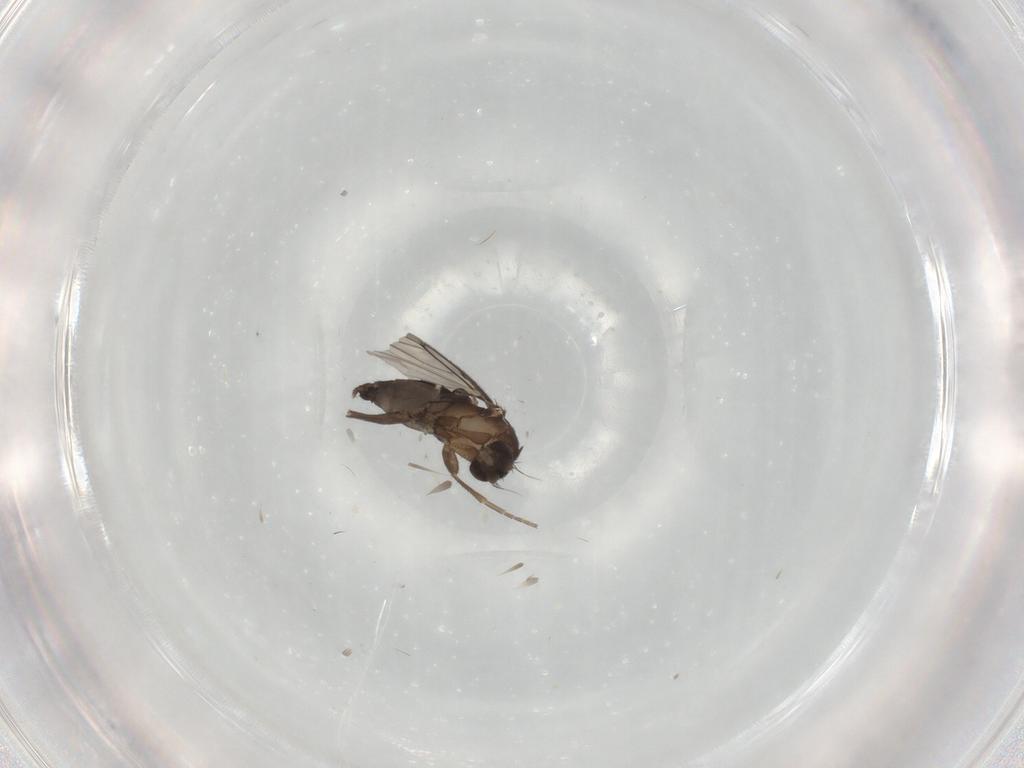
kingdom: Animalia
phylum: Arthropoda
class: Insecta
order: Diptera
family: Phoridae
